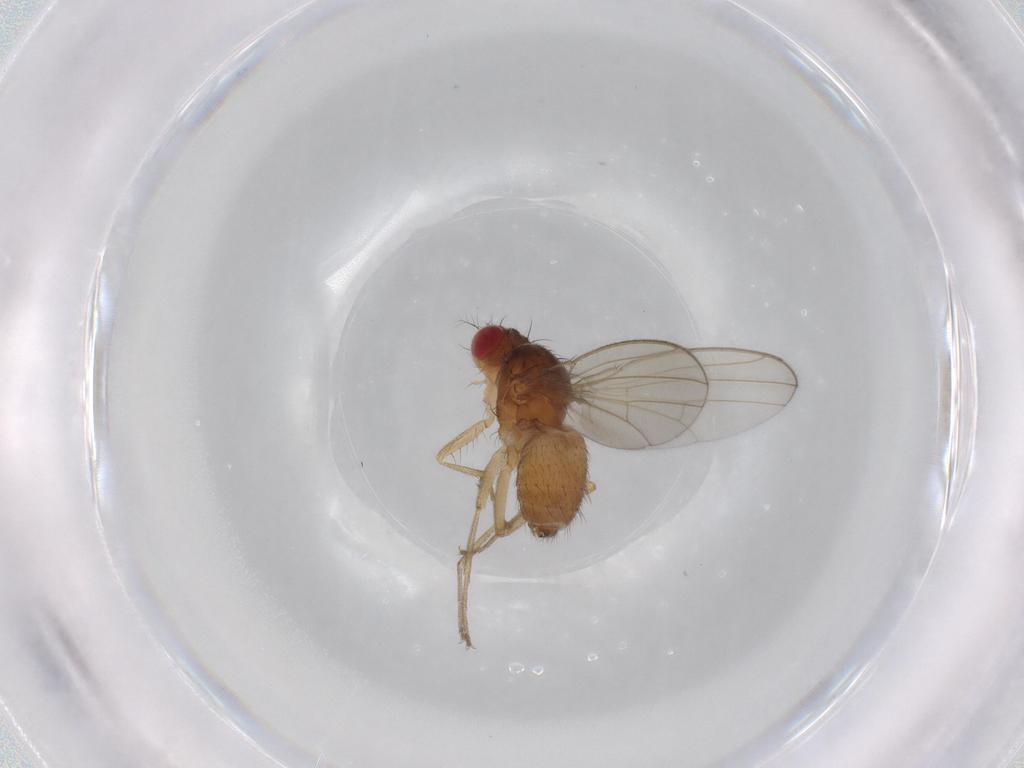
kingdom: Animalia
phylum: Arthropoda
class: Insecta
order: Diptera
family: Drosophilidae
